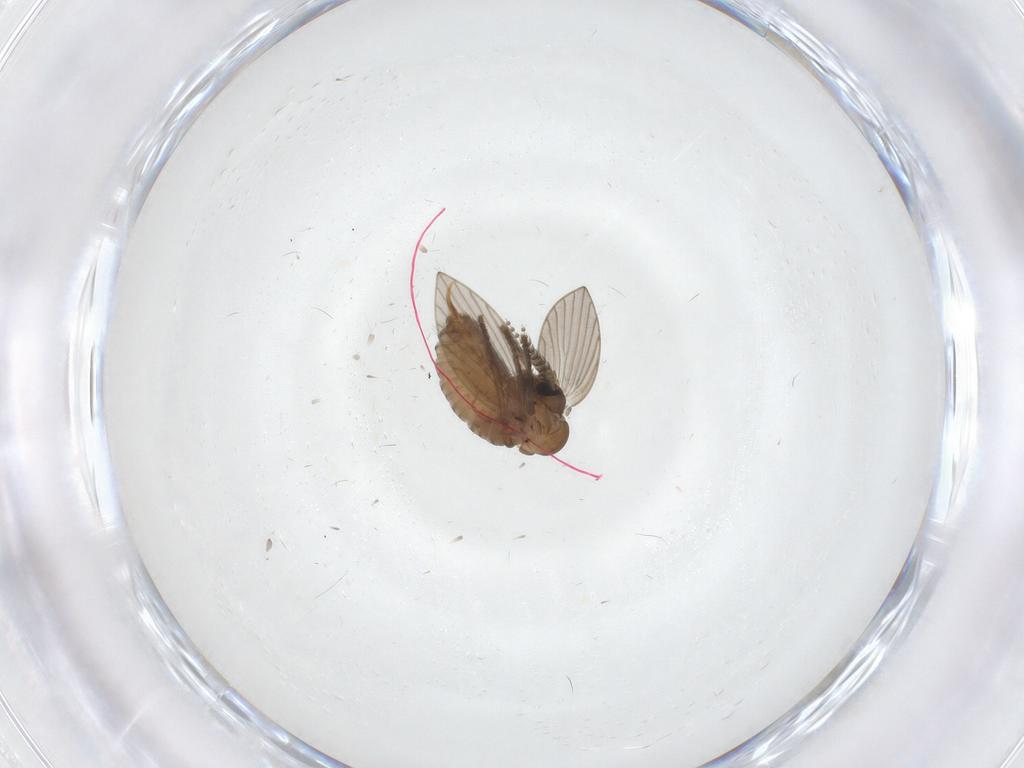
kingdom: Animalia
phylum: Arthropoda
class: Insecta
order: Diptera
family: Psychodidae
